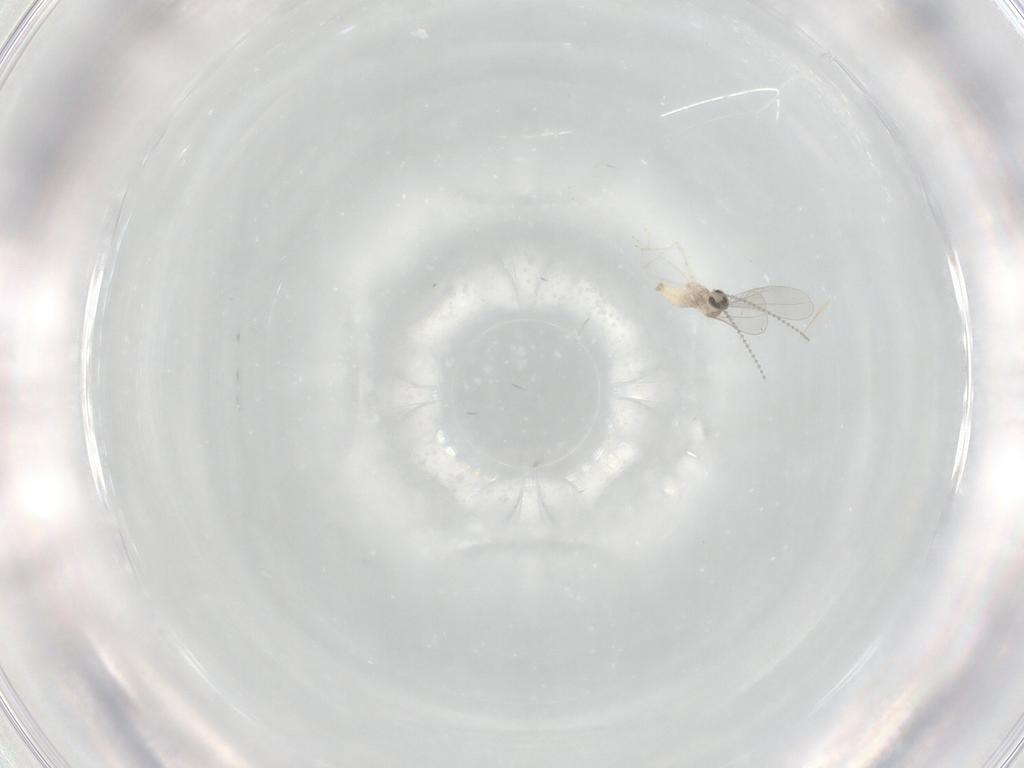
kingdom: Animalia
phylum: Arthropoda
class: Insecta
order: Diptera
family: Cecidomyiidae
